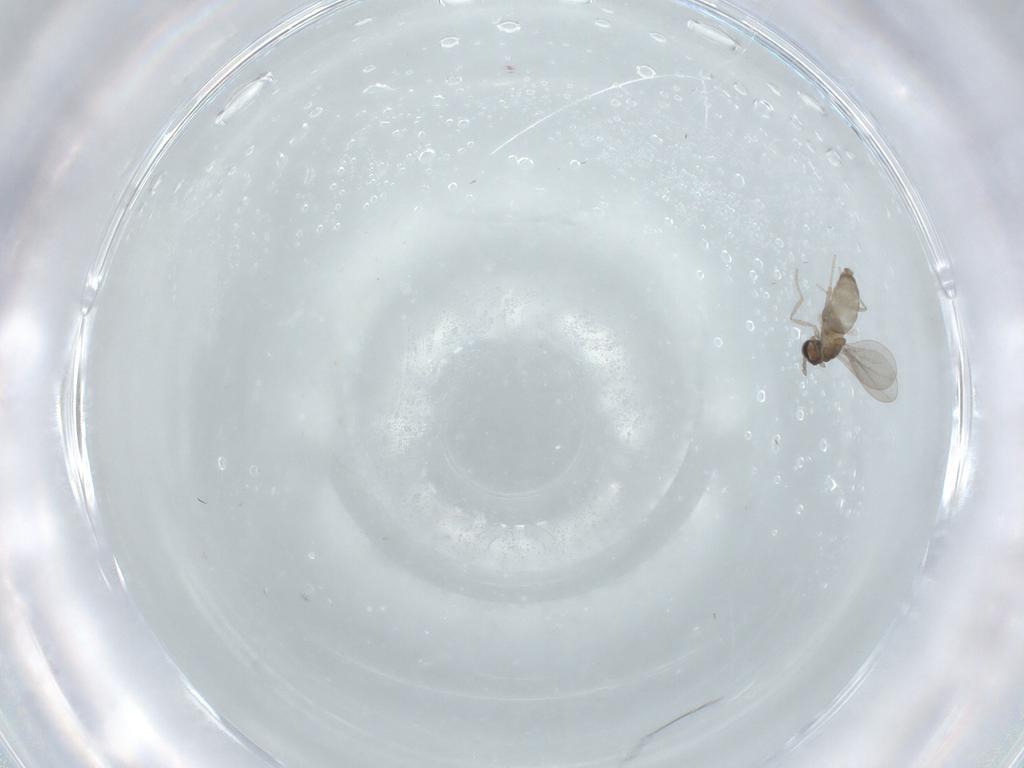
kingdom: Animalia
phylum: Arthropoda
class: Insecta
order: Diptera
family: Cecidomyiidae
